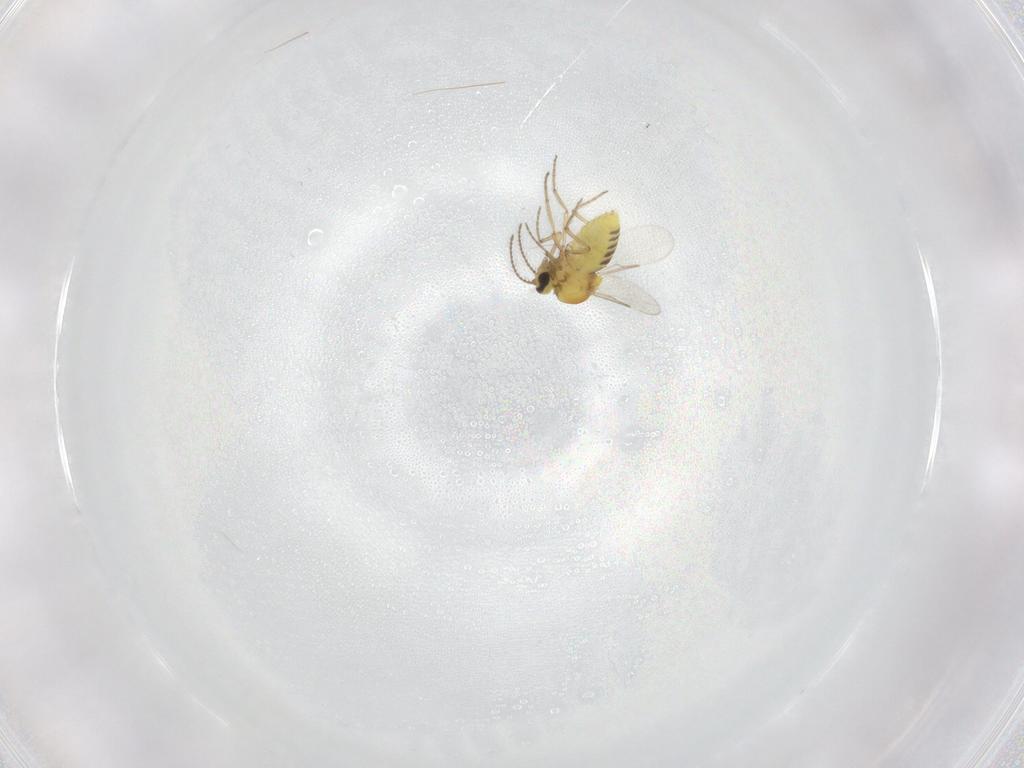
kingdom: Animalia
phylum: Arthropoda
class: Insecta
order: Diptera
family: Ceratopogonidae
